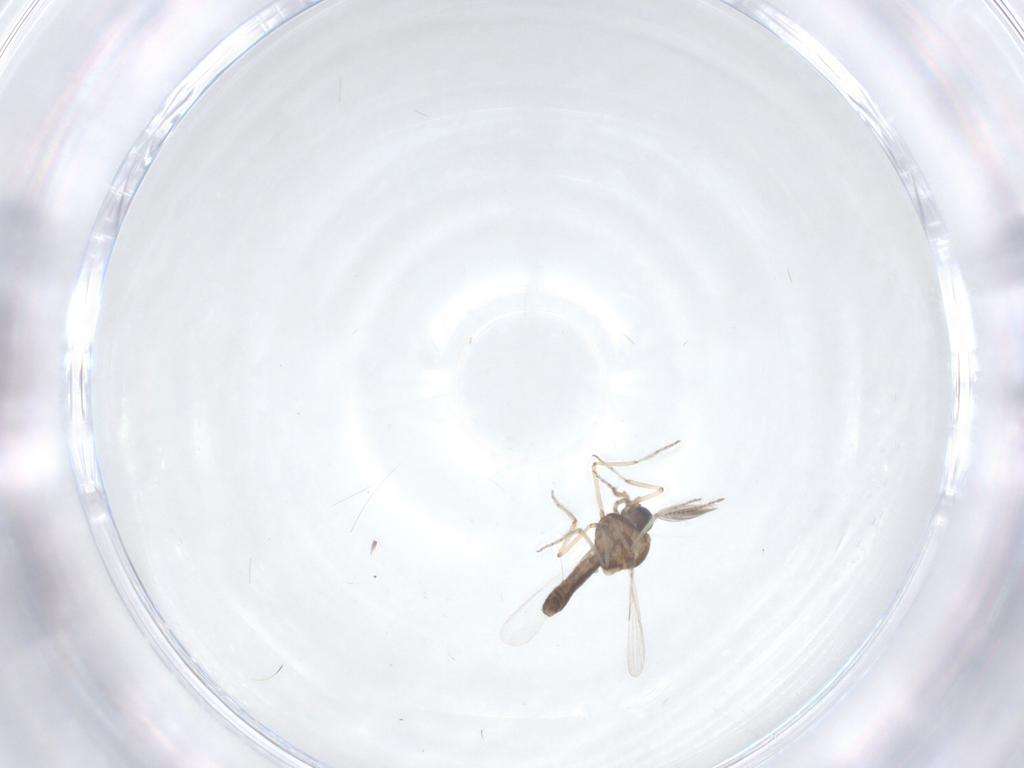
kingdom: Animalia
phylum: Arthropoda
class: Insecta
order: Diptera
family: Ceratopogonidae
